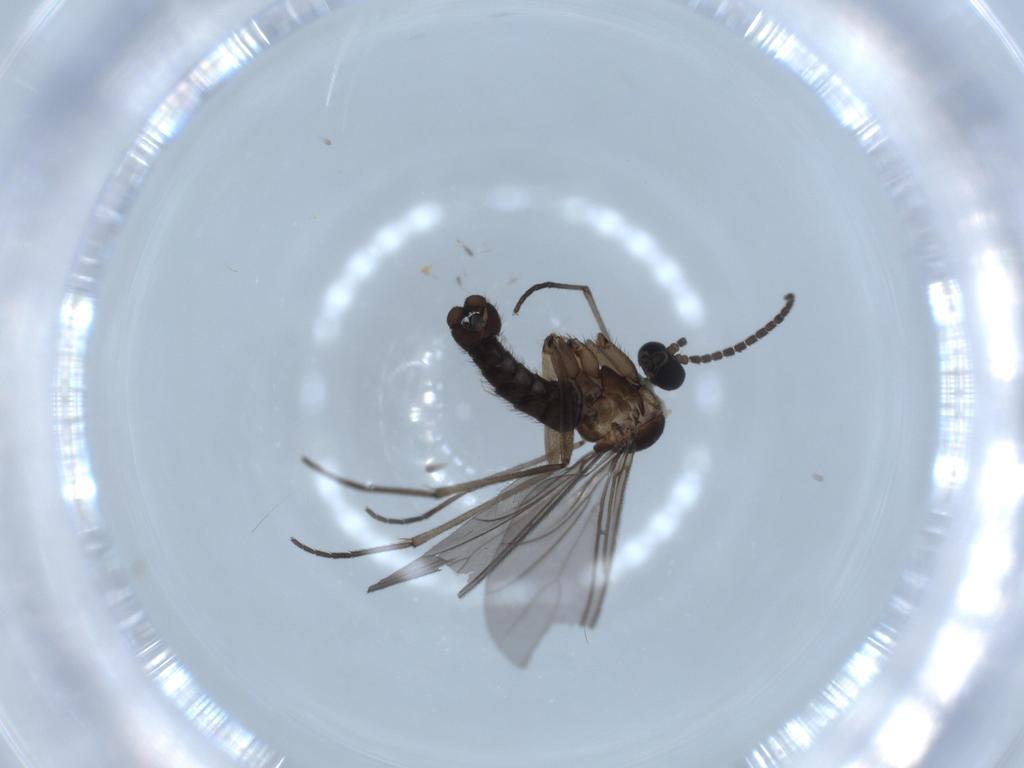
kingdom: Animalia
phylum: Arthropoda
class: Insecta
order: Diptera
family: Sciaridae
